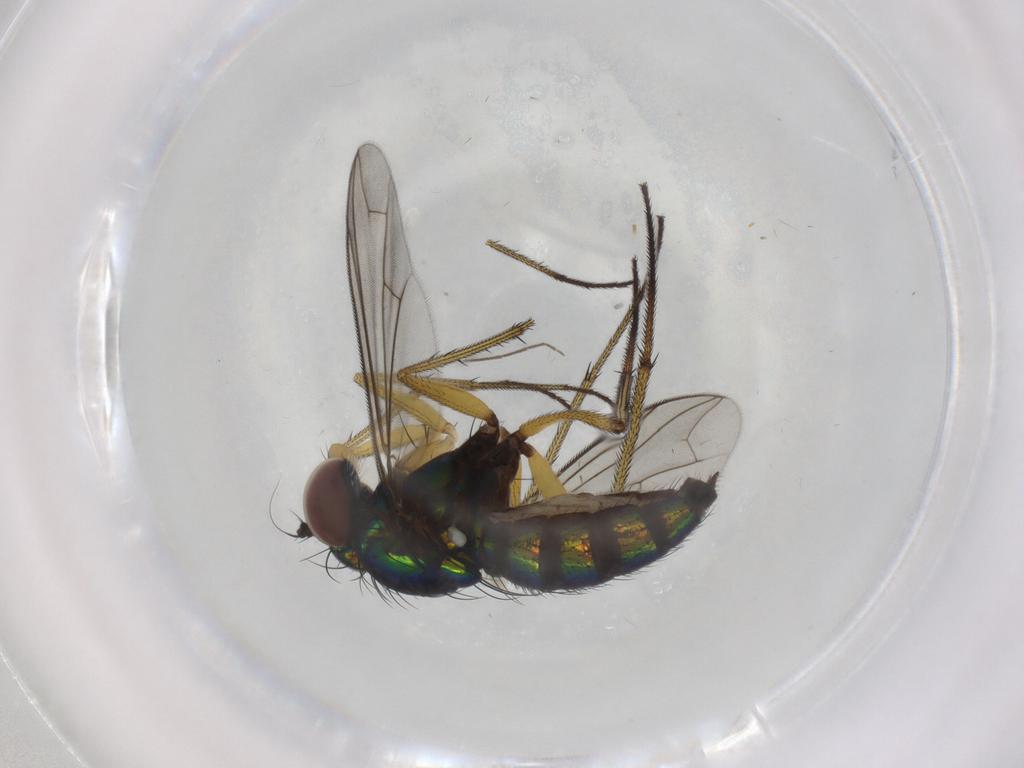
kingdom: Animalia
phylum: Arthropoda
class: Insecta
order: Diptera
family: Dolichopodidae
